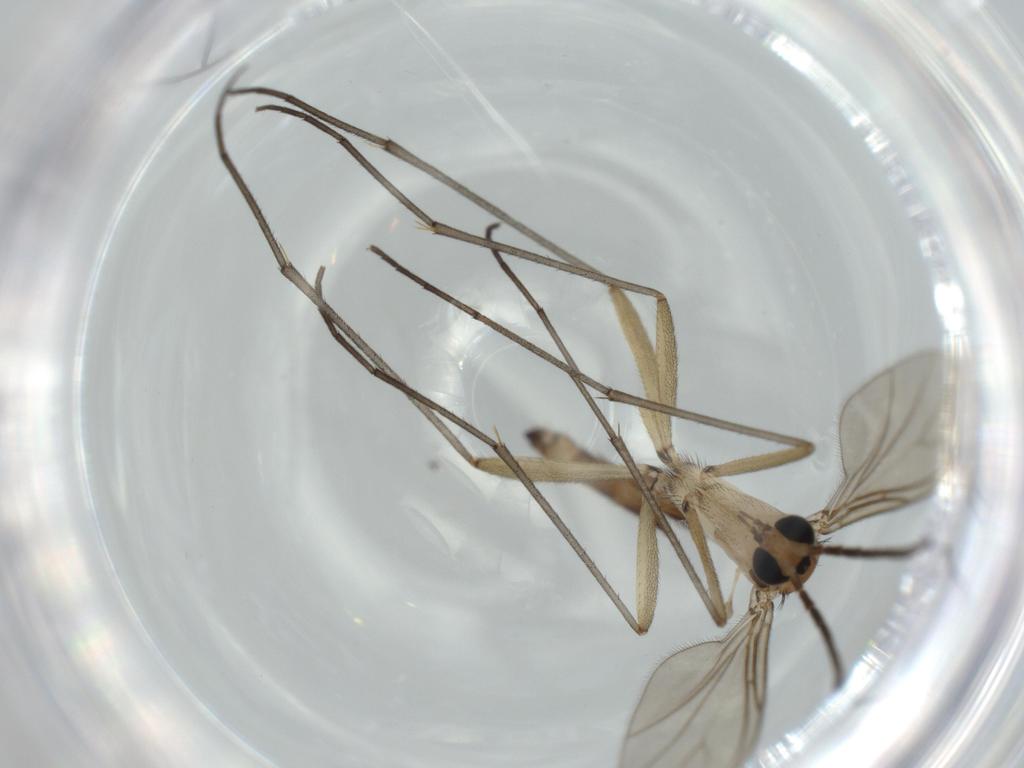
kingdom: Animalia
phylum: Arthropoda
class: Insecta
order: Diptera
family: Sciaridae
